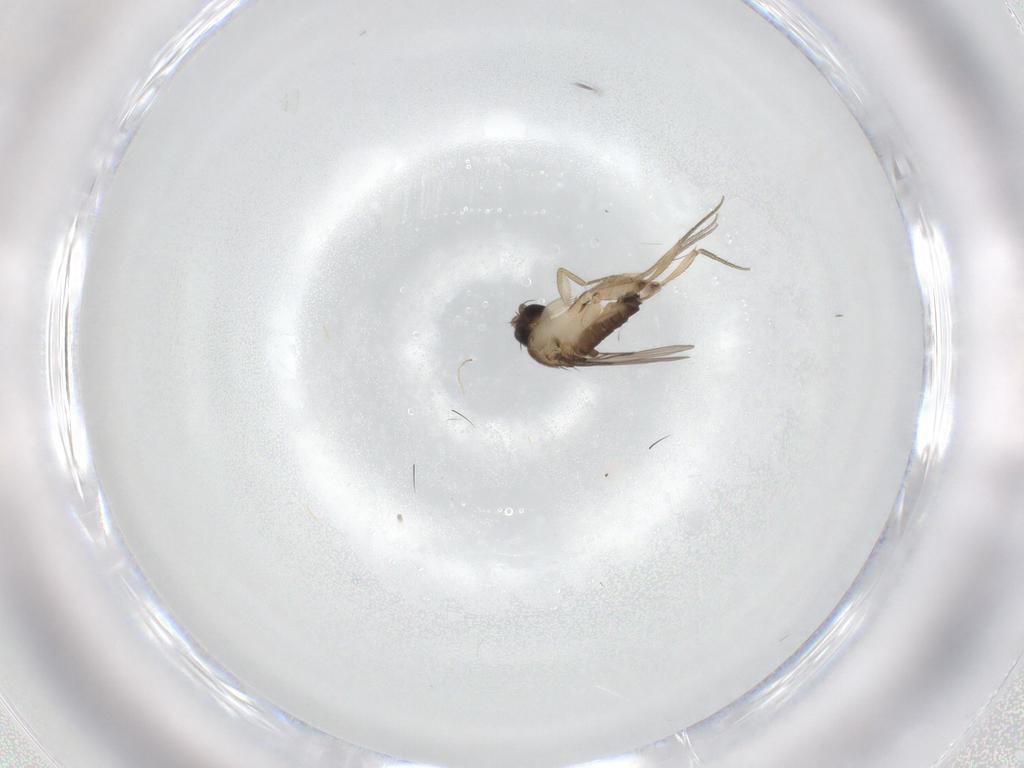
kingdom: Animalia
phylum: Arthropoda
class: Insecta
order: Diptera
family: Phoridae
